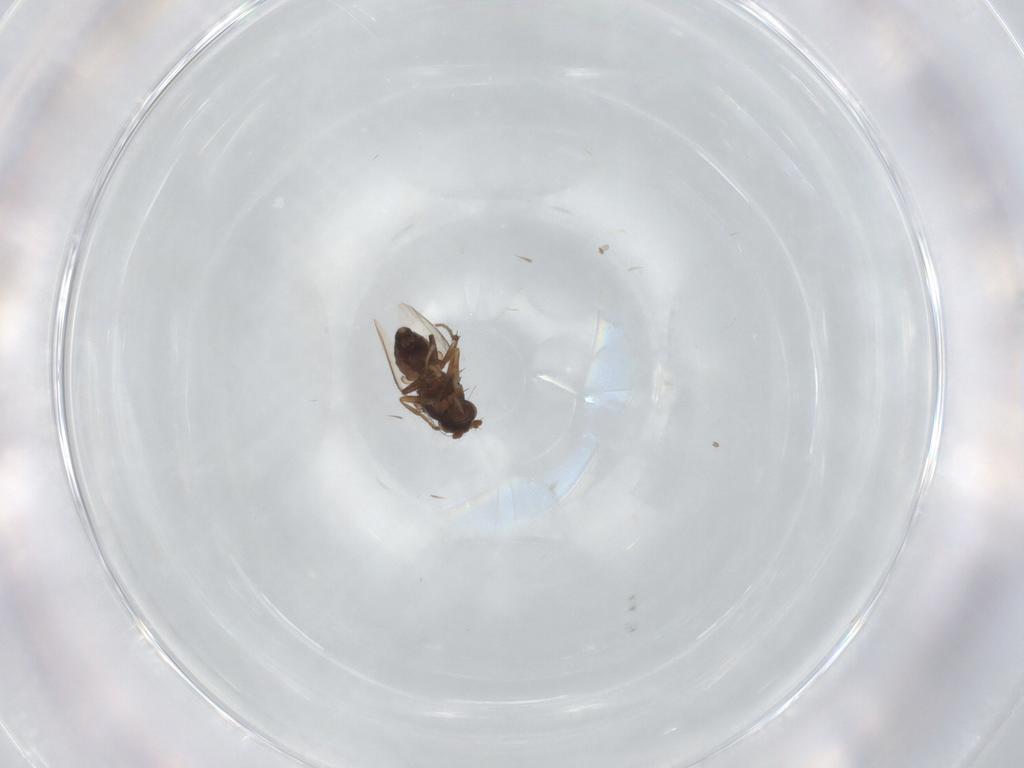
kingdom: Animalia
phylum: Arthropoda
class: Insecta
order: Diptera
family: Sphaeroceridae
